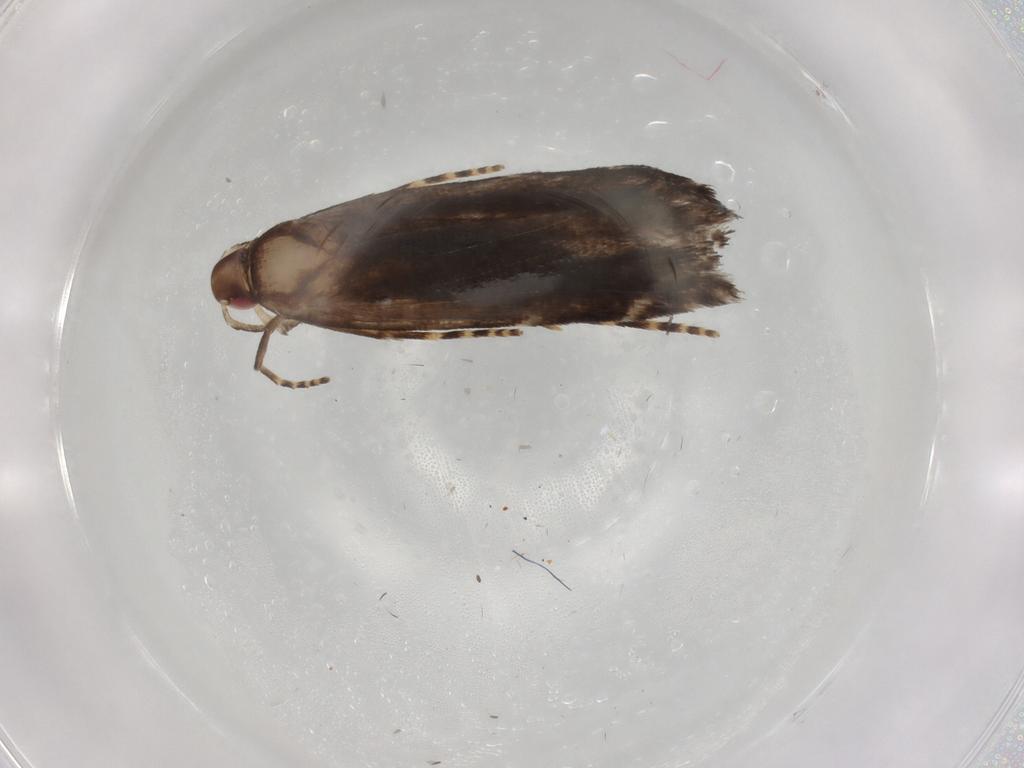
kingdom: Animalia
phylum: Arthropoda
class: Insecta
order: Lepidoptera
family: Gelechiidae
